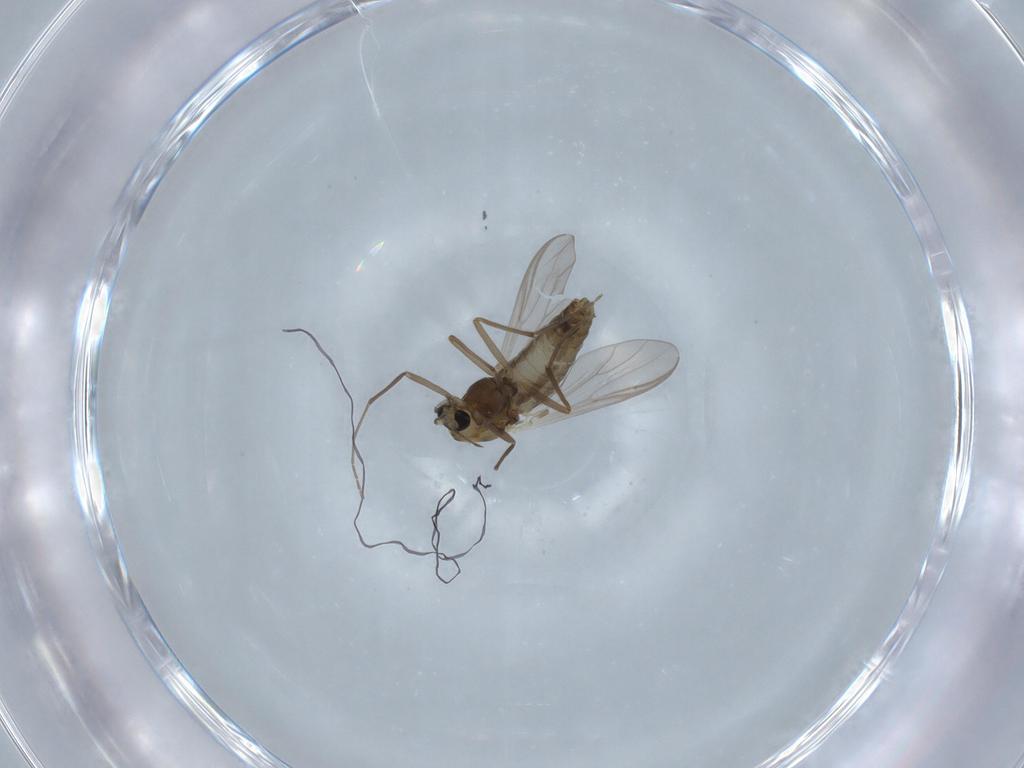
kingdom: Animalia
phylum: Arthropoda
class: Insecta
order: Diptera
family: Chironomidae
